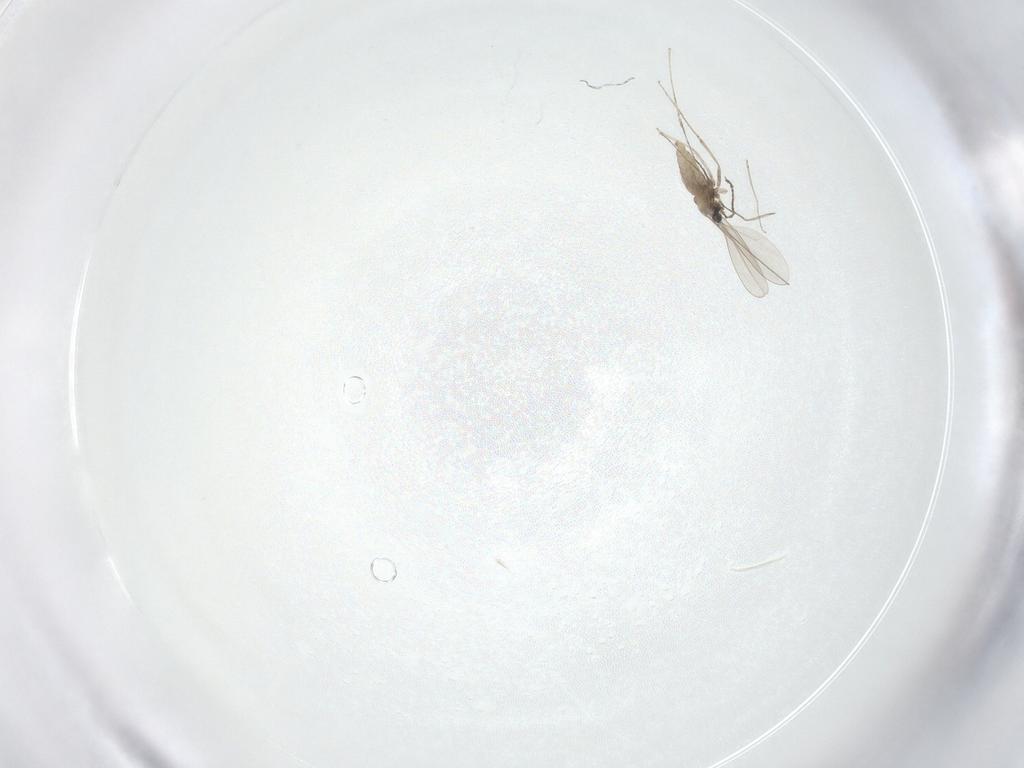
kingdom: Animalia
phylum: Arthropoda
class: Insecta
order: Diptera
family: Cecidomyiidae
